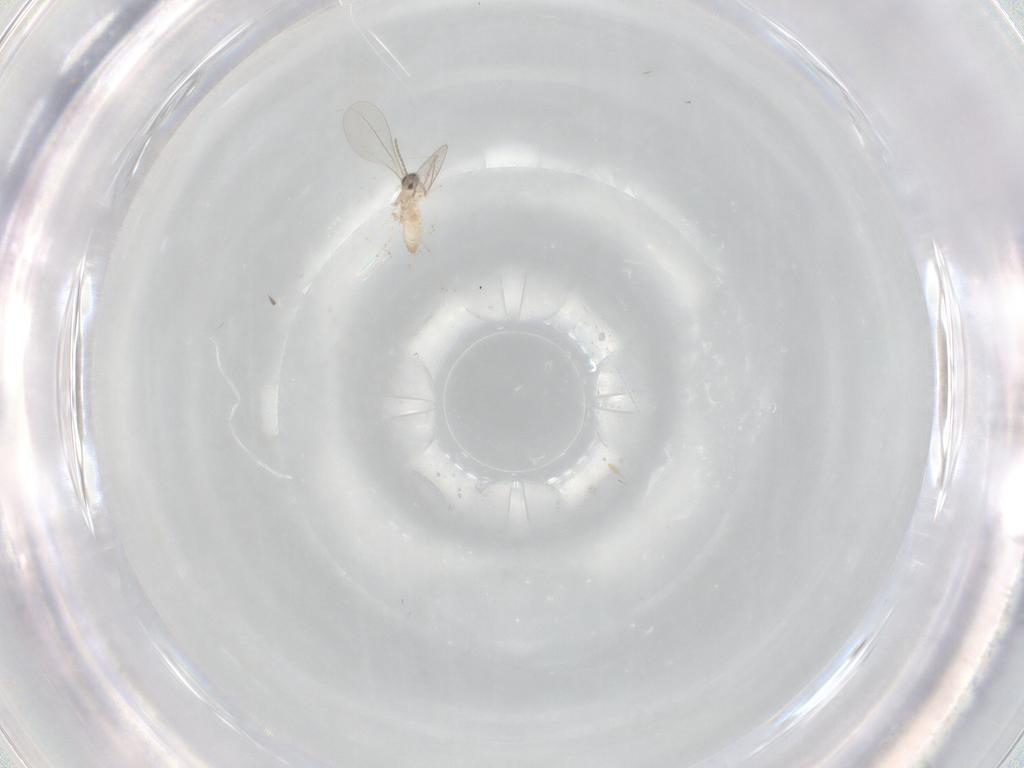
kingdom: Animalia
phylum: Arthropoda
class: Insecta
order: Diptera
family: Cecidomyiidae
